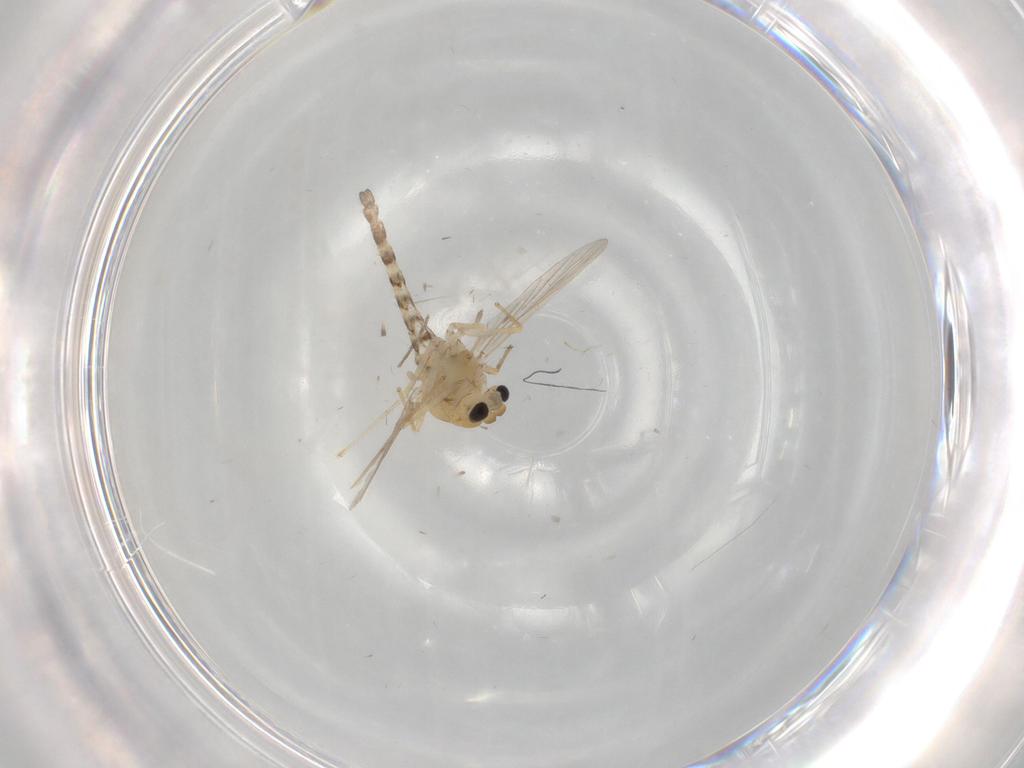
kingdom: Animalia
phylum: Arthropoda
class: Insecta
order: Diptera
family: Chironomidae
